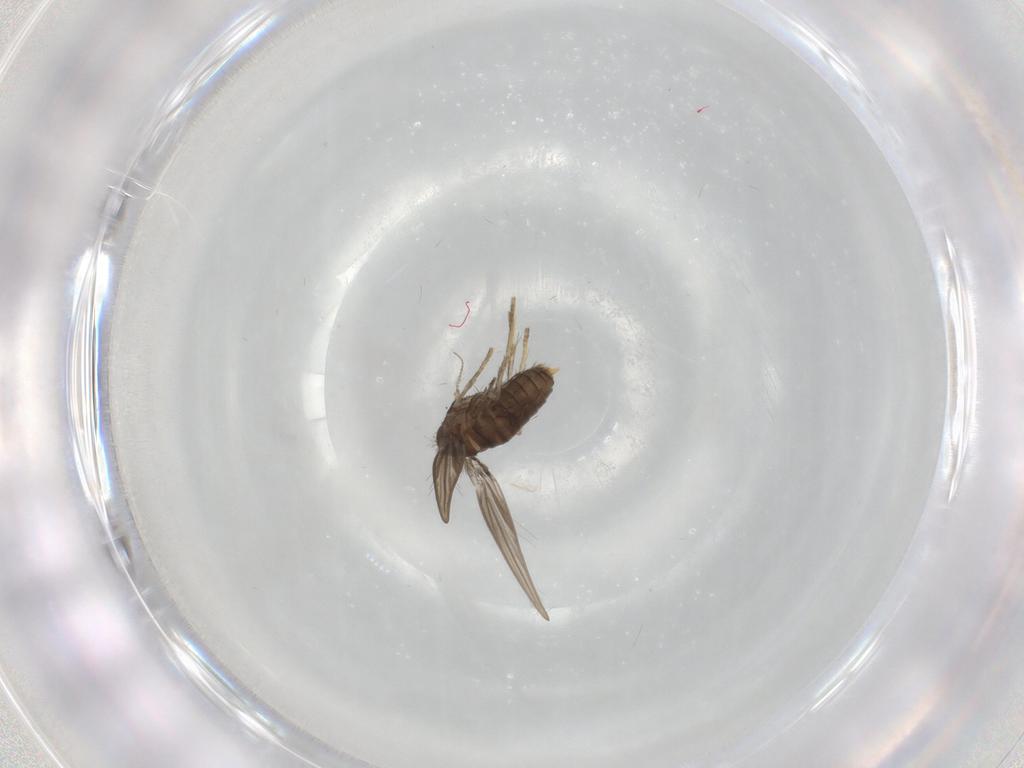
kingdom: Animalia
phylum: Arthropoda
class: Insecta
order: Diptera
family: Psychodidae
